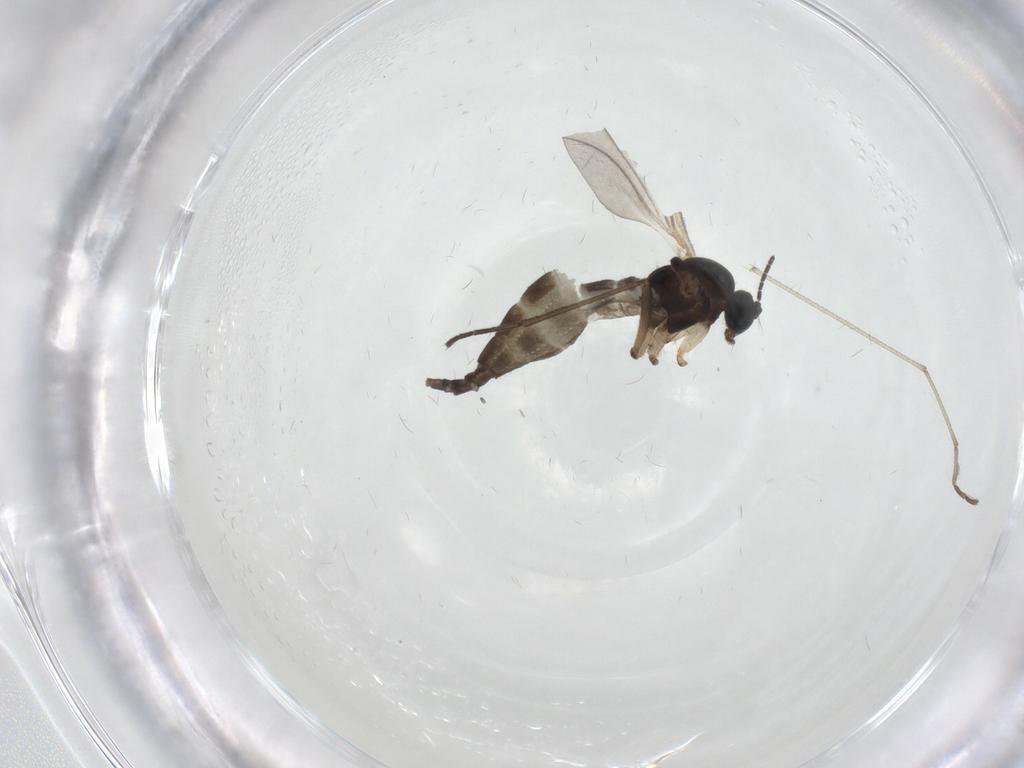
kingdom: Animalia
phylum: Arthropoda
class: Insecta
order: Diptera
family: Sciaridae
